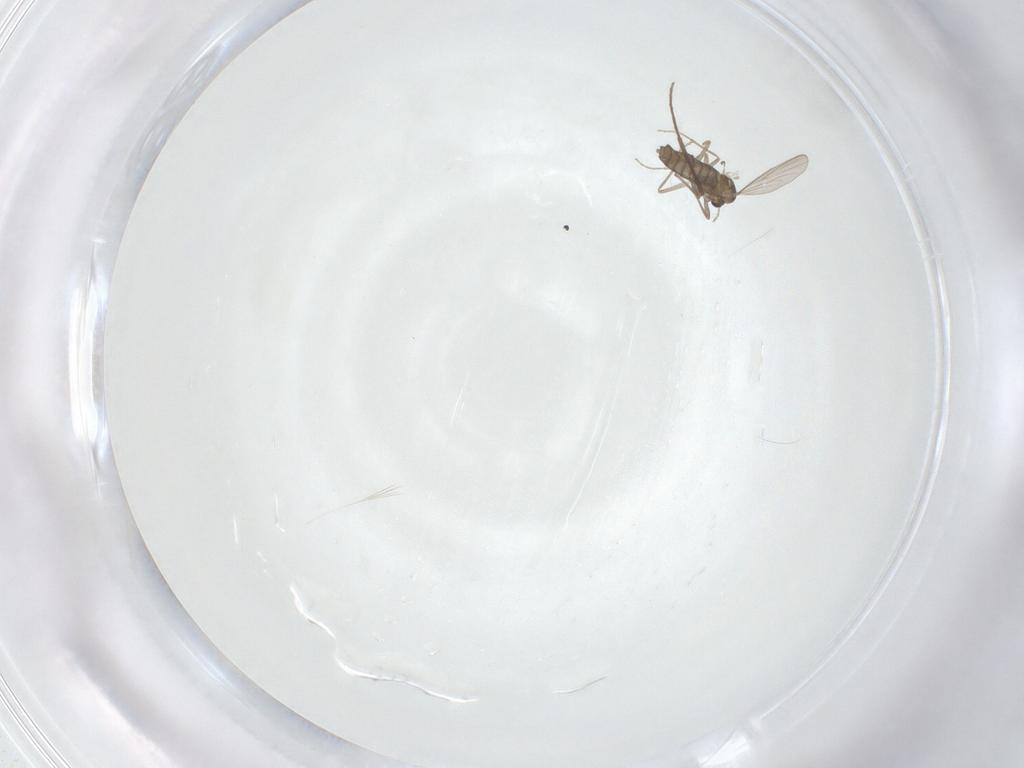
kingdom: Animalia
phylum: Arthropoda
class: Insecta
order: Diptera
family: Chironomidae
